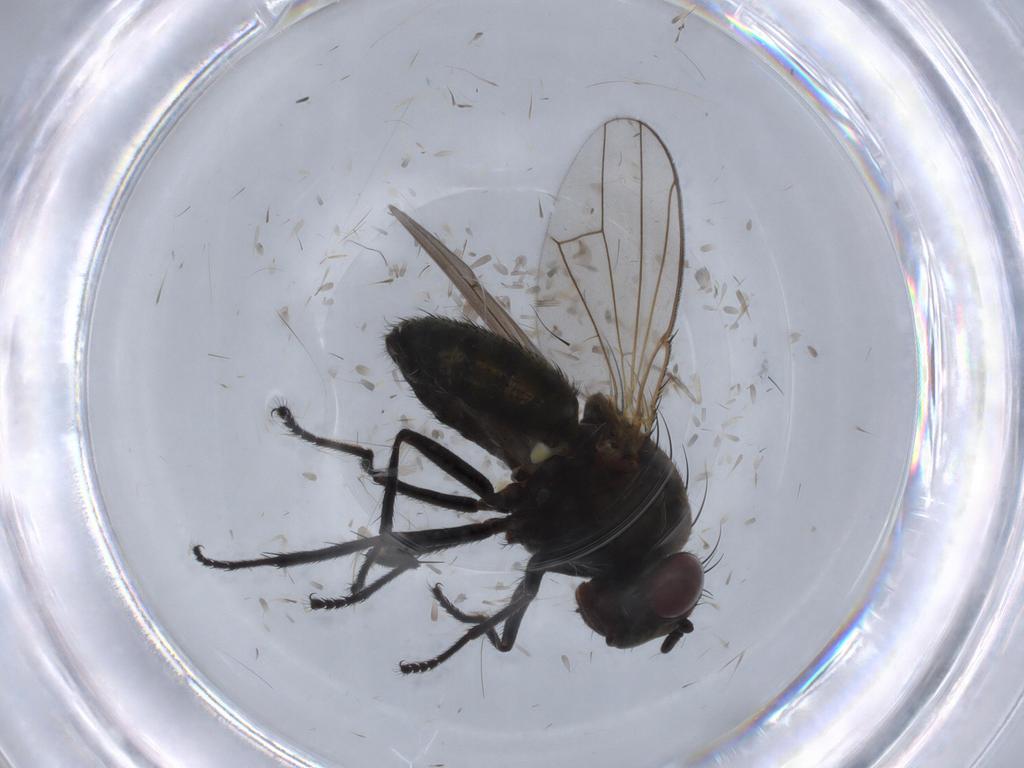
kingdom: Animalia
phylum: Arthropoda
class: Insecta
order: Diptera
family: Ephydridae
